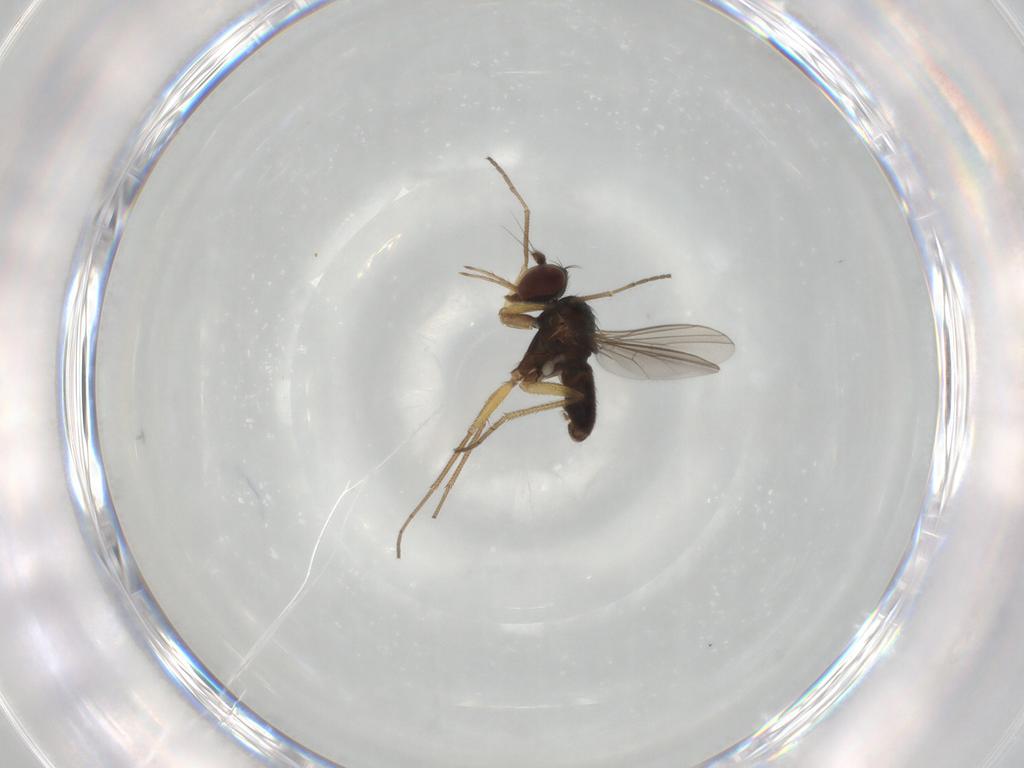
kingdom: Animalia
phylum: Arthropoda
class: Insecta
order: Diptera
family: Dolichopodidae
